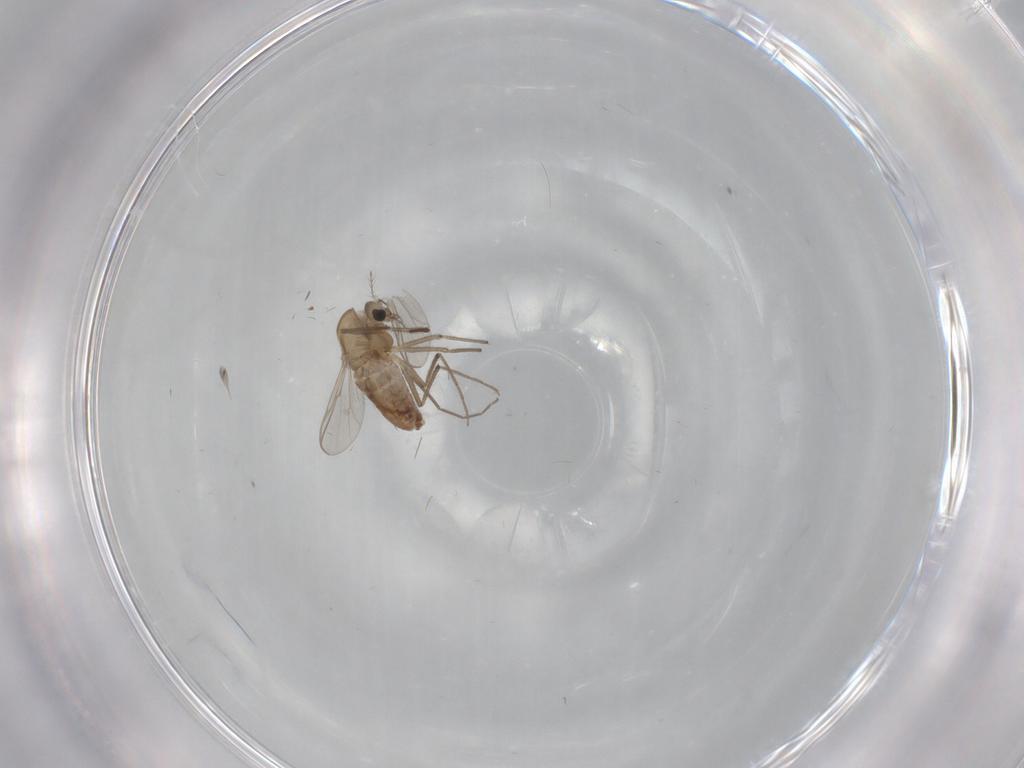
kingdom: Animalia
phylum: Arthropoda
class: Insecta
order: Diptera
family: Chironomidae
